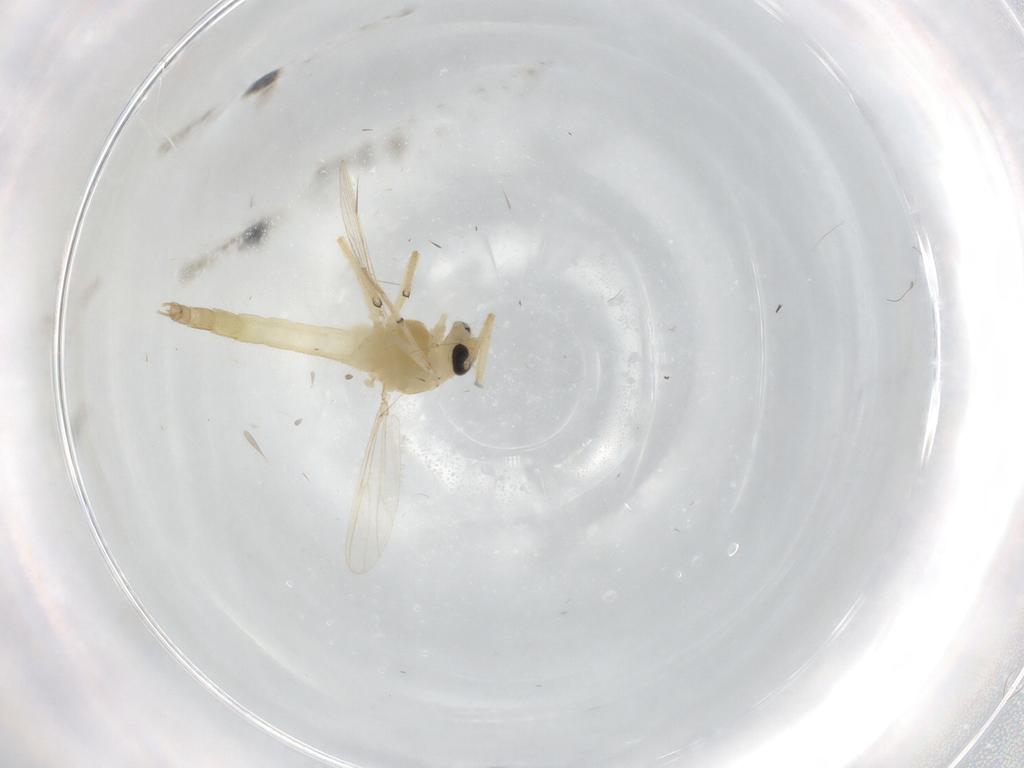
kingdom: Animalia
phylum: Arthropoda
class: Insecta
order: Diptera
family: Chironomidae
